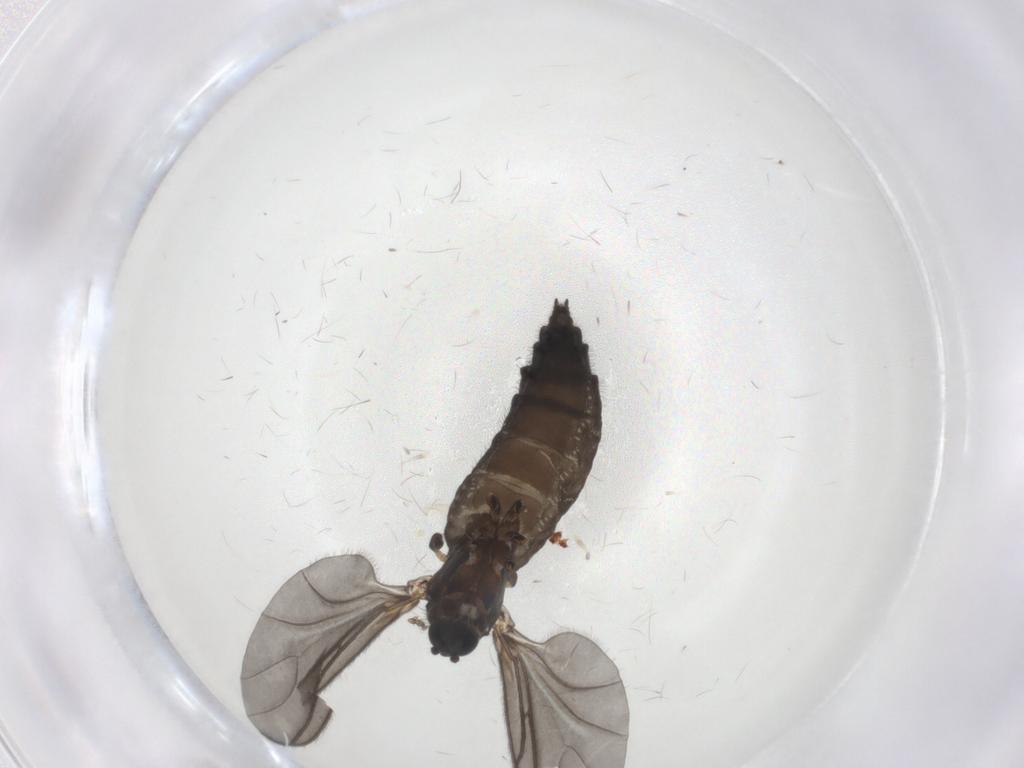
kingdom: Animalia
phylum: Arthropoda
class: Insecta
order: Diptera
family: Sciaridae
